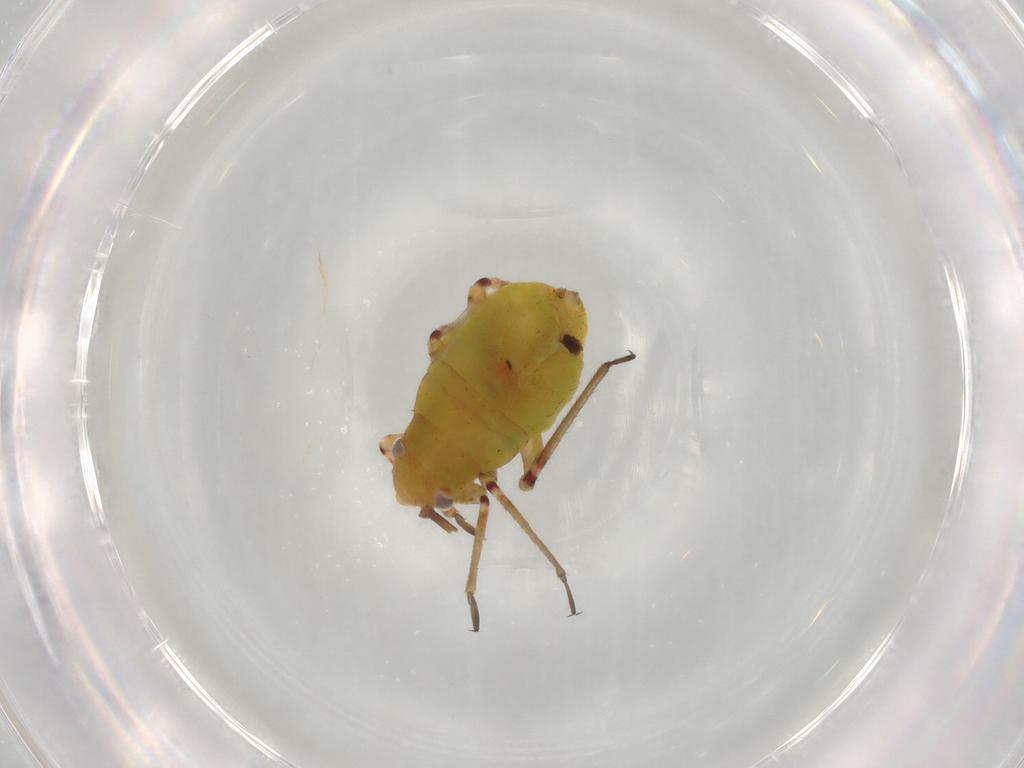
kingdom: Animalia
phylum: Arthropoda
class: Insecta
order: Hemiptera
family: Miridae
